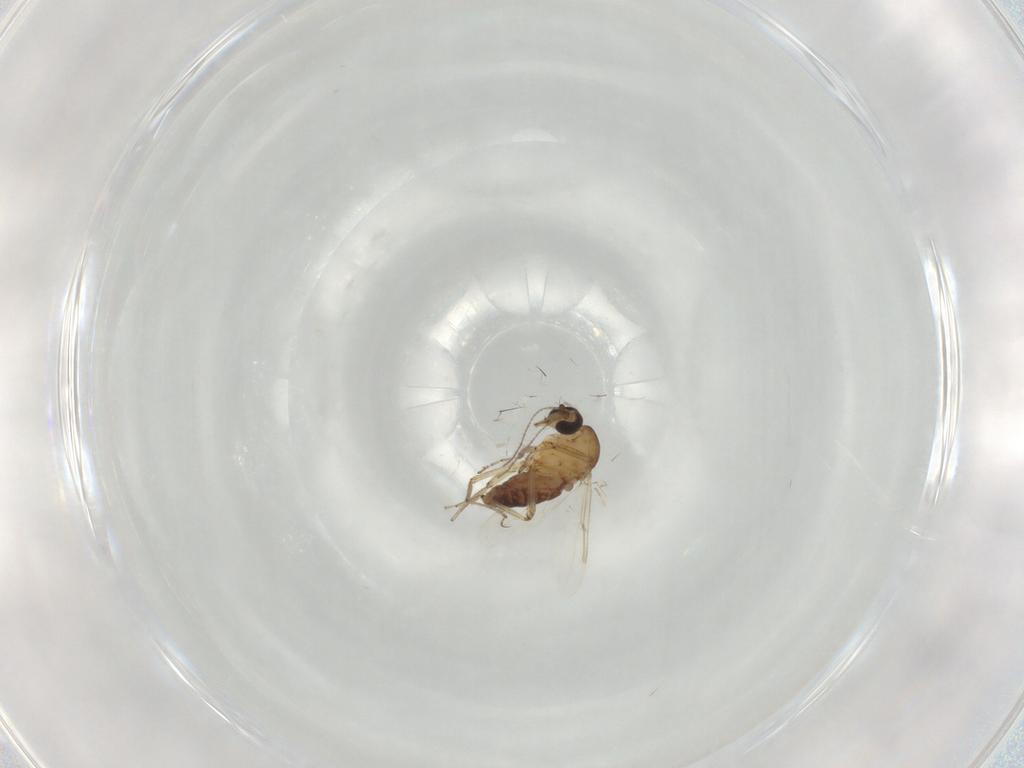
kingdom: Animalia
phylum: Arthropoda
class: Insecta
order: Diptera
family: Ceratopogonidae
